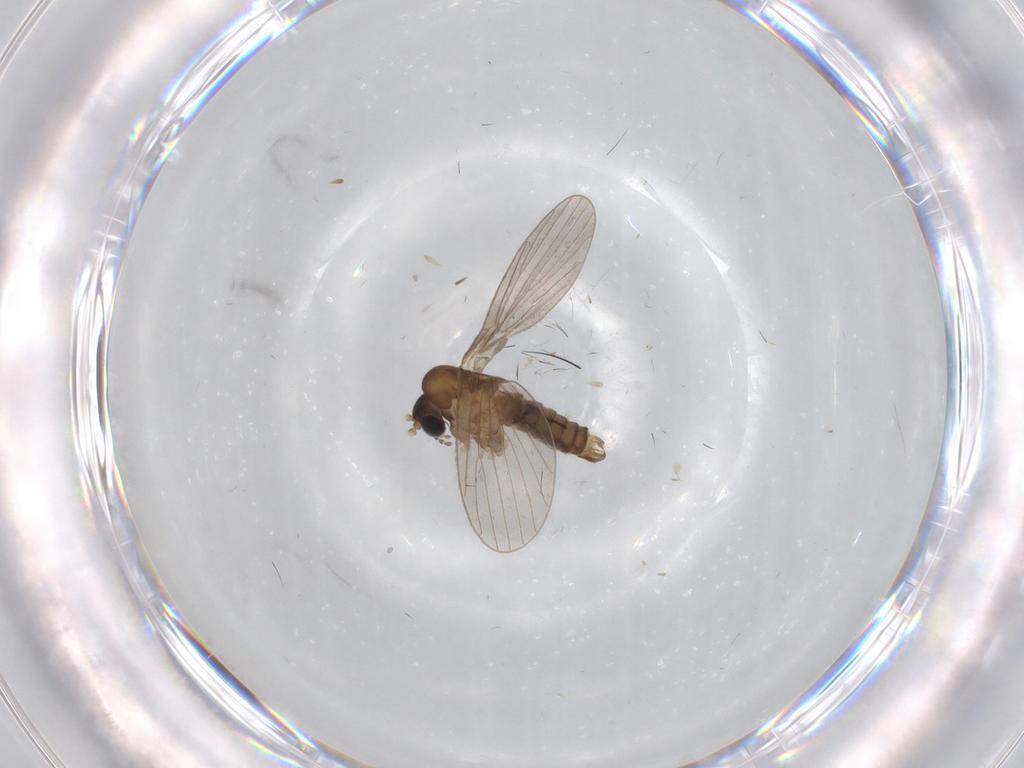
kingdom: Animalia
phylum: Arthropoda
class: Insecta
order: Diptera
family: Psychodidae
